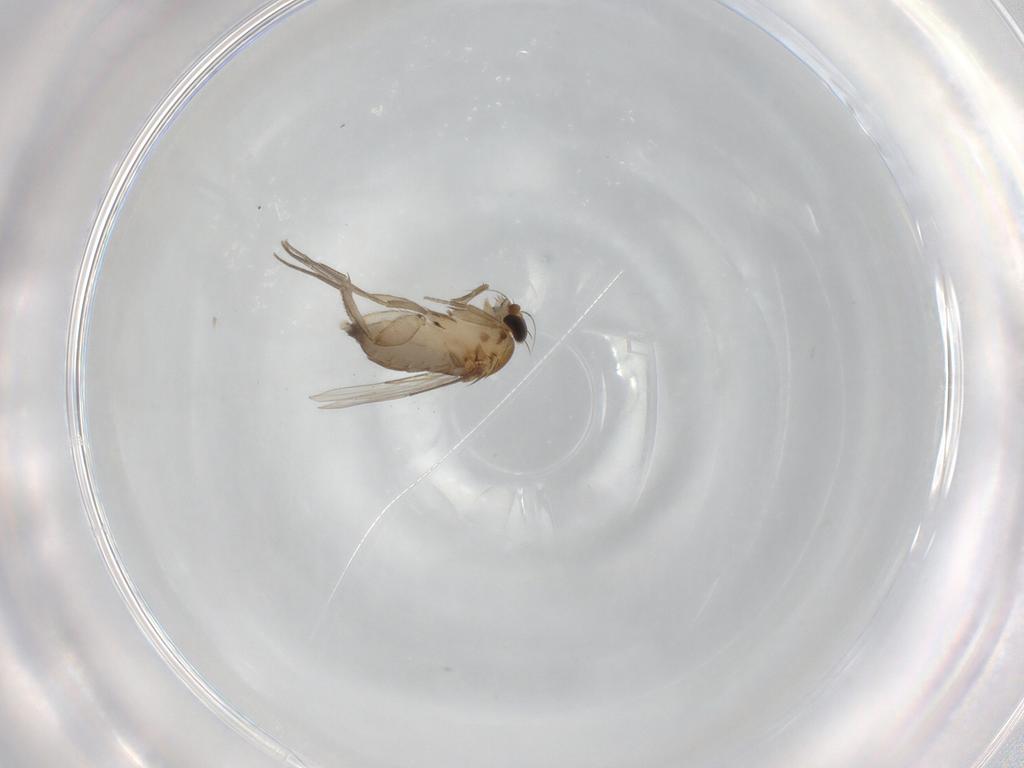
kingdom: Animalia
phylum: Arthropoda
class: Insecta
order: Diptera
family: Phoridae
